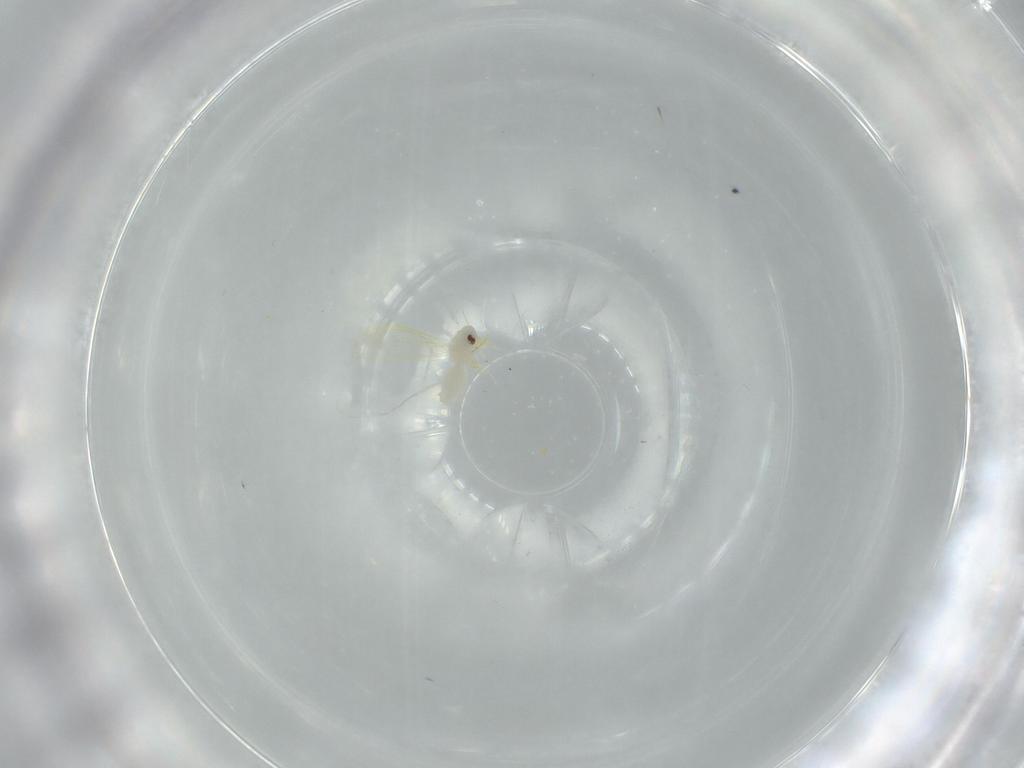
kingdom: Animalia
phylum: Arthropoda
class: Insecta
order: Hemiptera
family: Aleyrodidae
